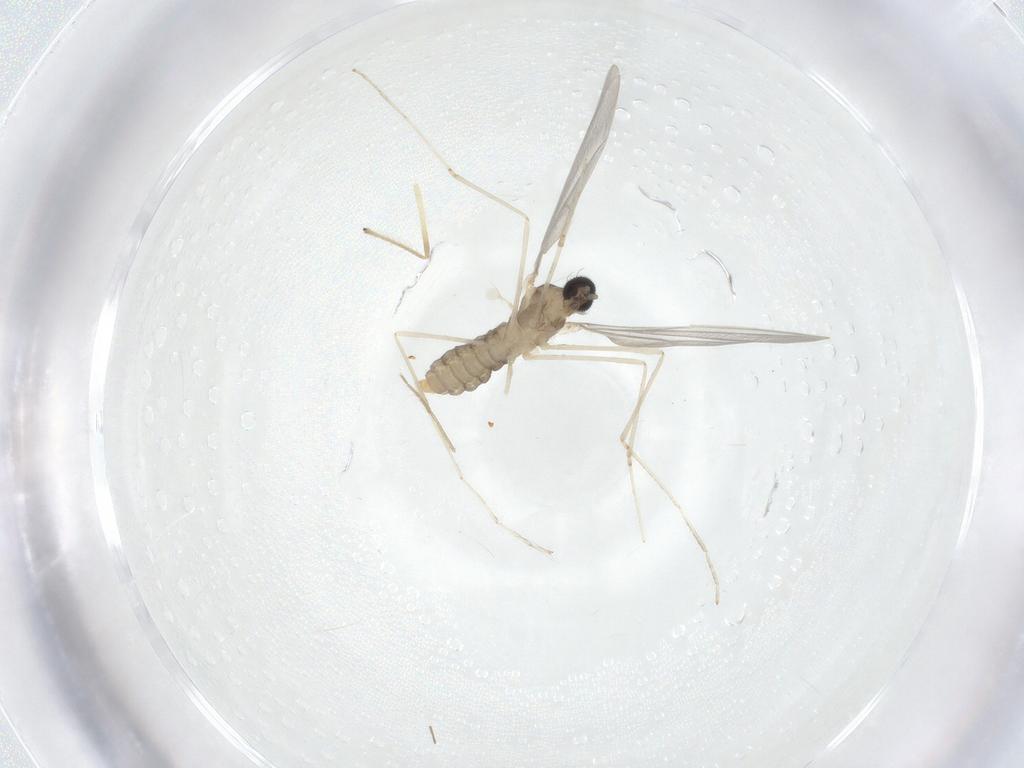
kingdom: Animalia
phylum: Arthropoda
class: Insecta
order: Diptera
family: Chironomidae
